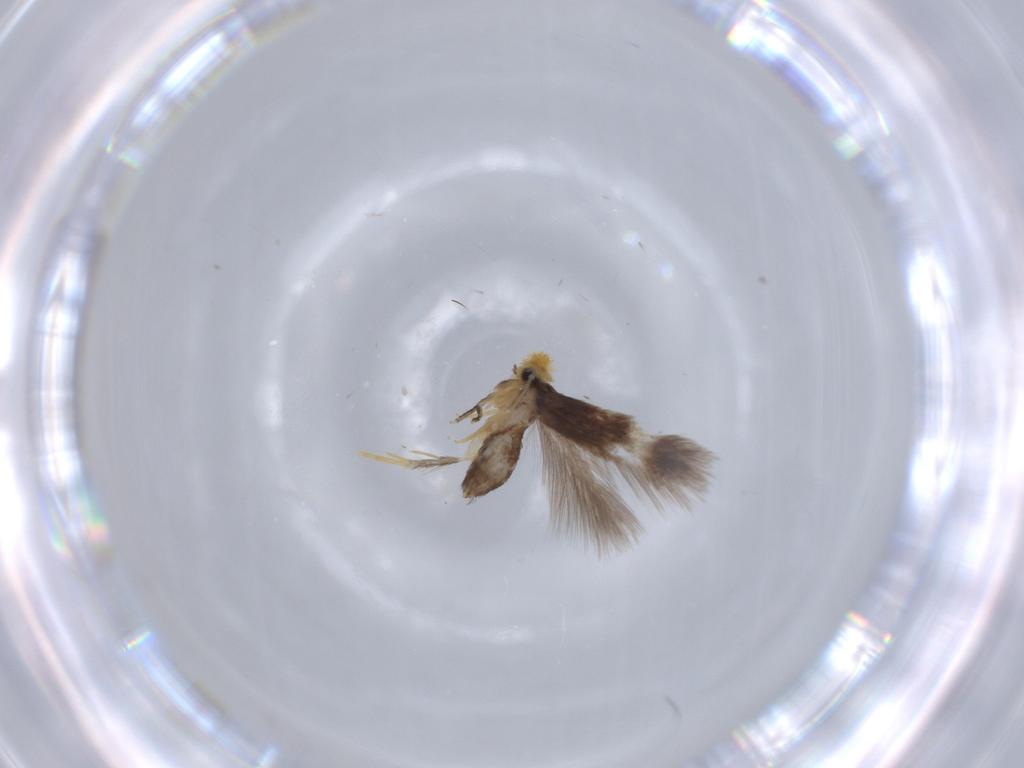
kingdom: Animalia
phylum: Arthropoda
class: Insecta
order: Lepidoptera
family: Nepticulidae
